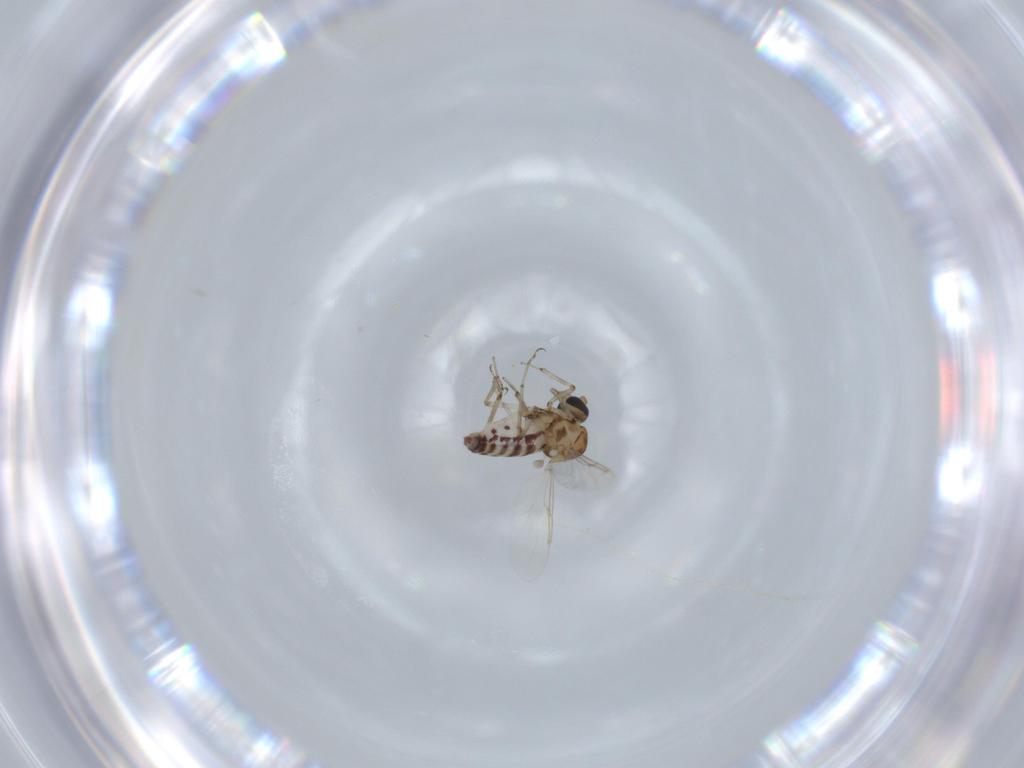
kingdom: Animalia
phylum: Arthropoda
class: Insecta
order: Diptera
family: Ceratopogonidae
